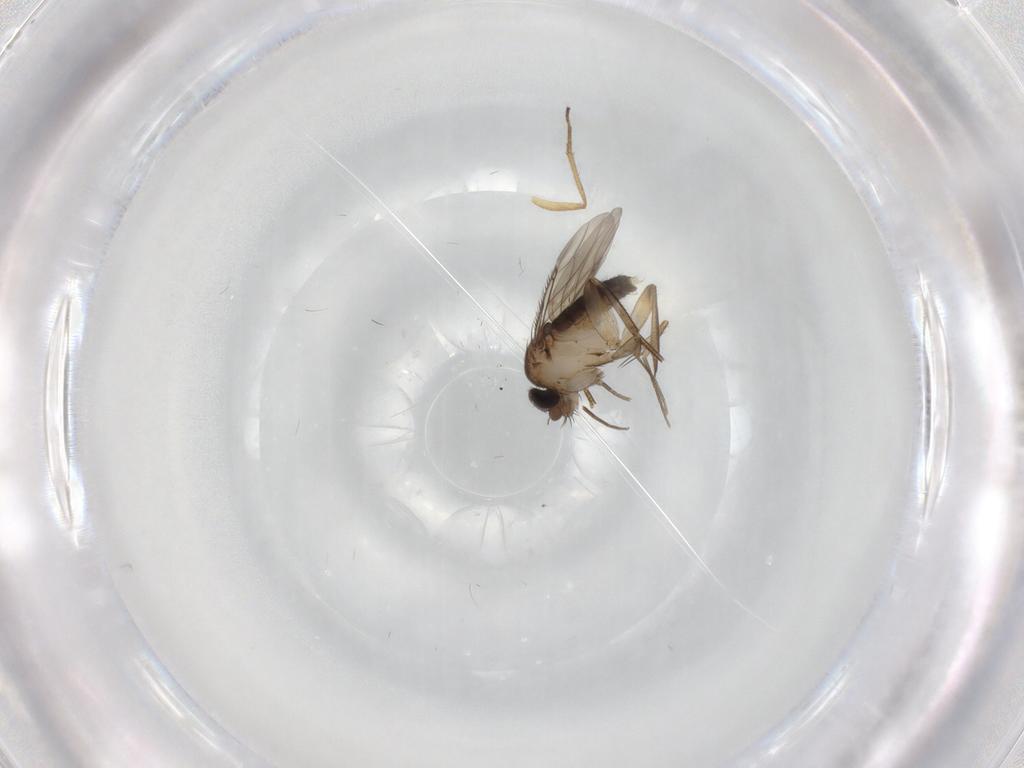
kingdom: Animalia
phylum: Arthropoda
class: Insecta
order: Diptera
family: Phoridae
